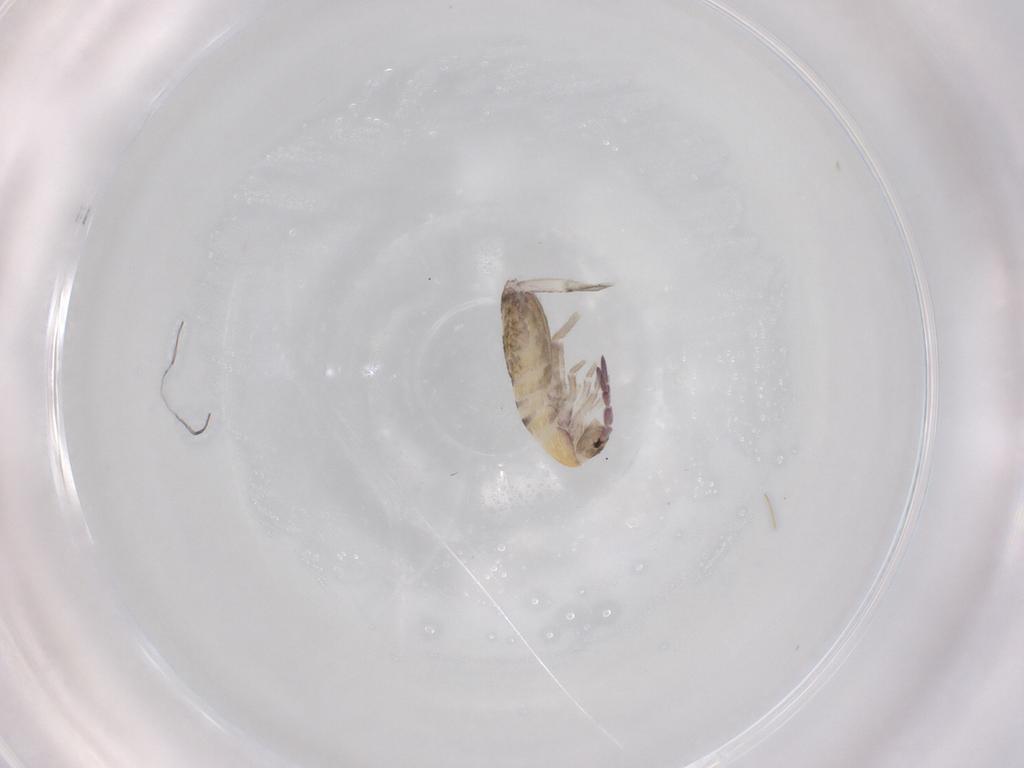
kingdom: Animalia
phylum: Arthropoda
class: Collembola
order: Entomobryomorpha
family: Entomobryidae
